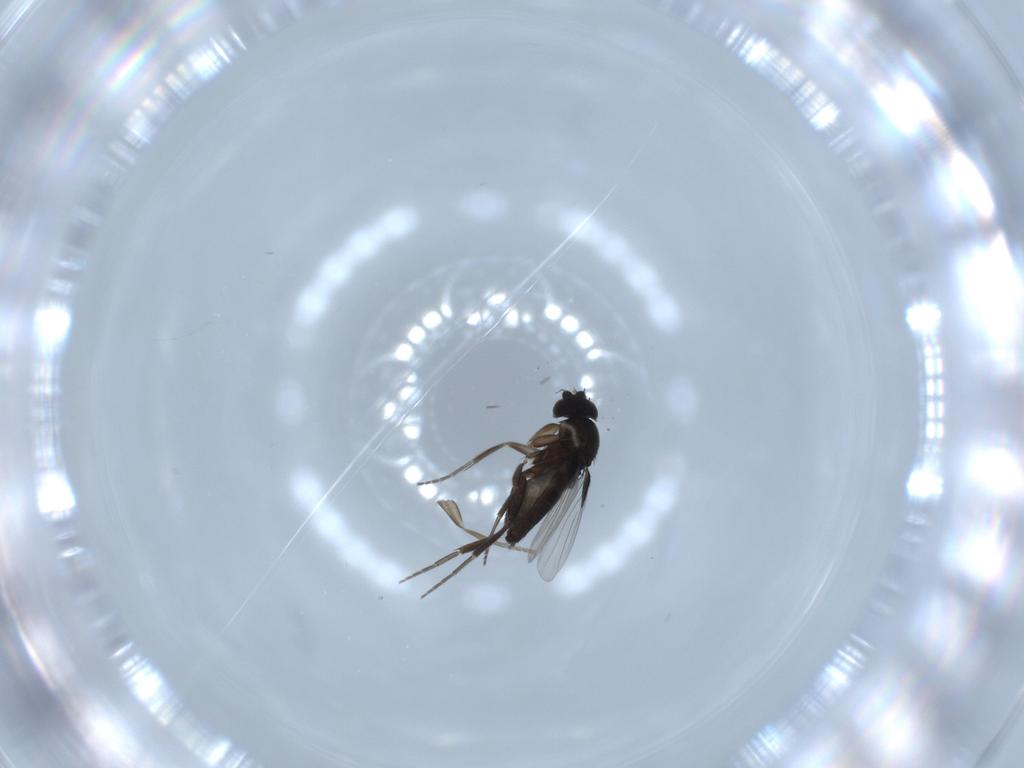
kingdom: Animalia
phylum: Arthropoda
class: Insecta
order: Diptera
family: Phoridae
